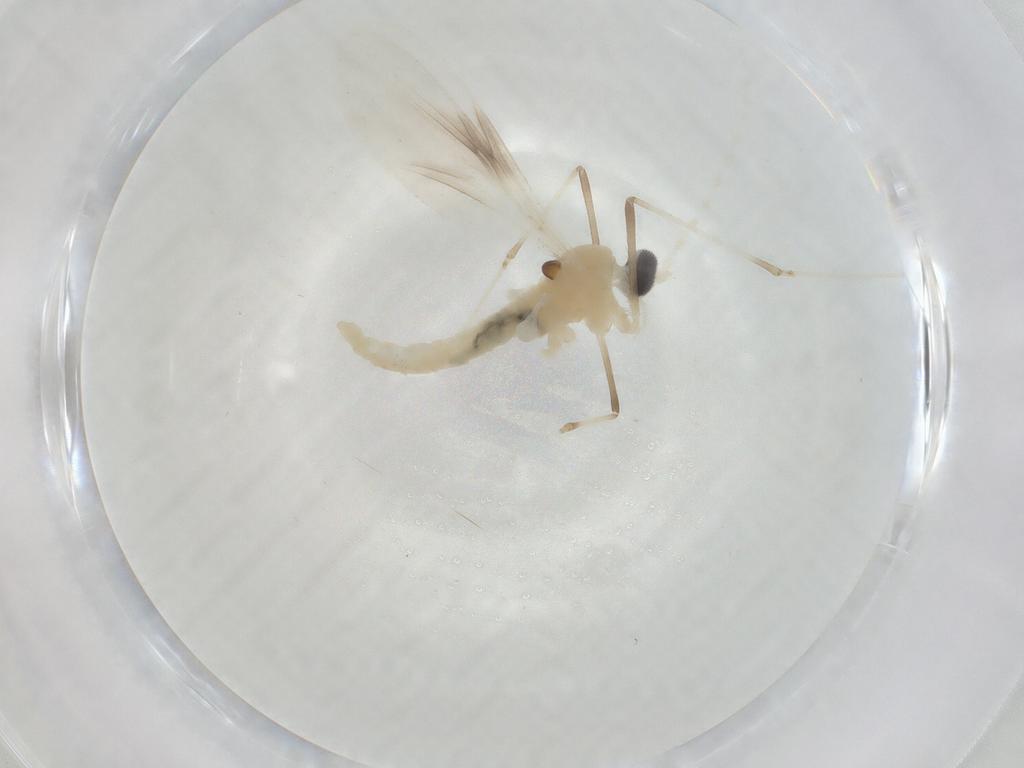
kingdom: Animalia
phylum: Arthropoda
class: Insecta
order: Diptera
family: Cecidomyiidae
